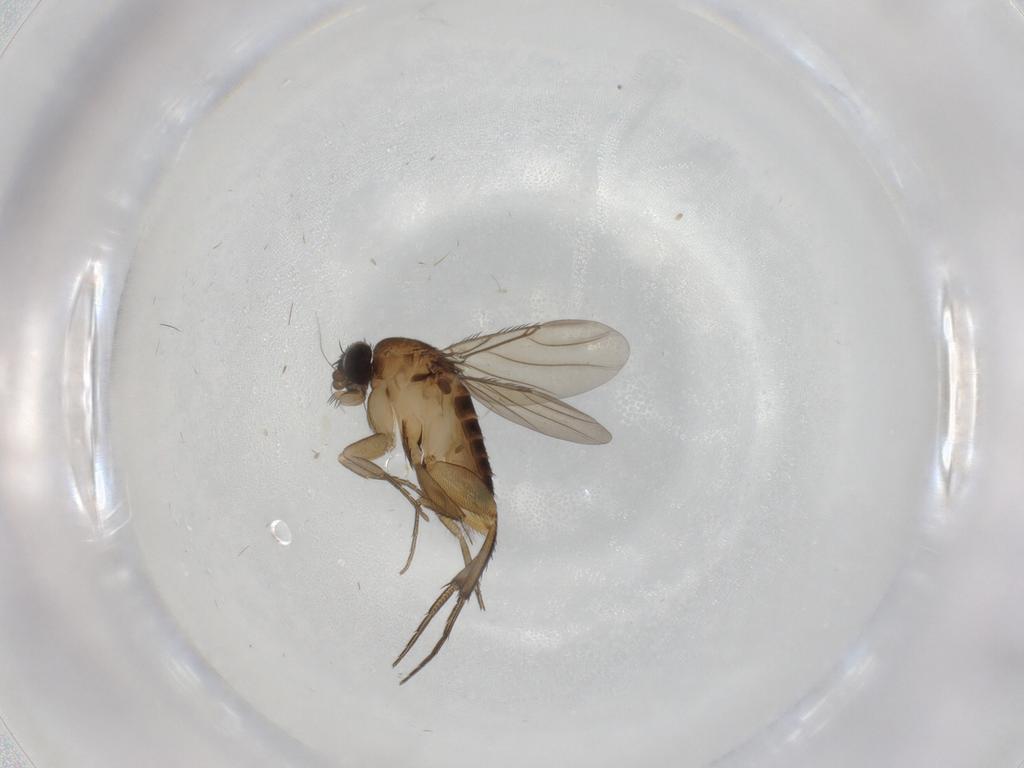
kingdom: Animalia
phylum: Arthropoda
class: Insecta
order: Diptera
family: Phoridae
